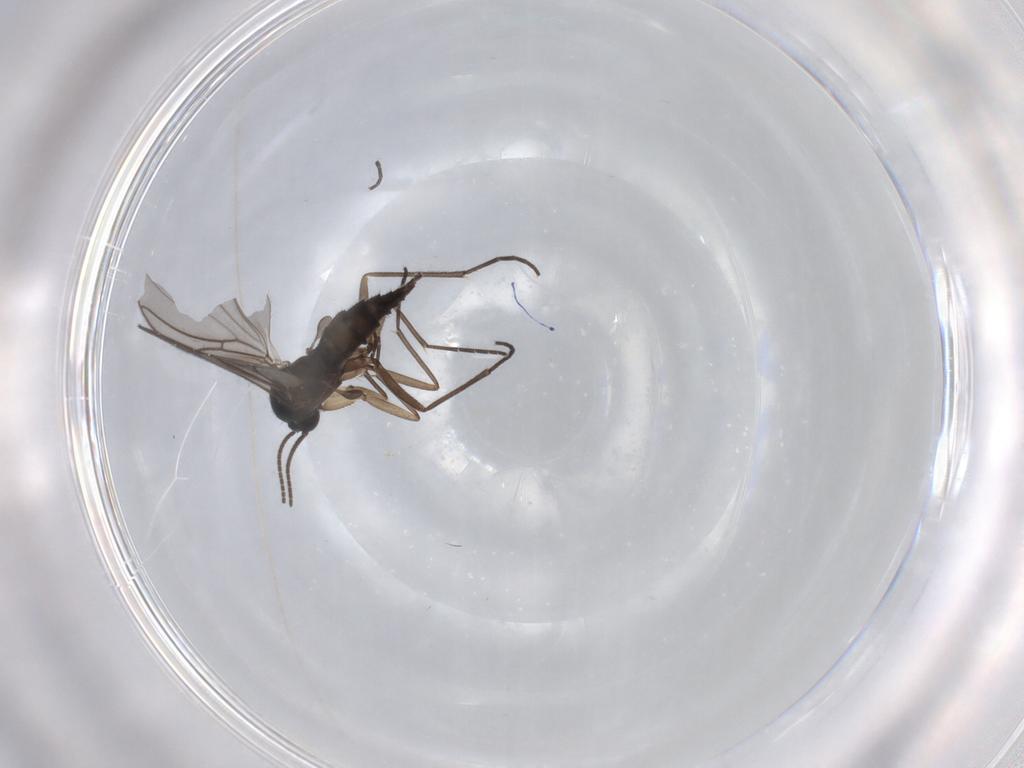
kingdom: Animalia
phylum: Arthropoda
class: Insecta
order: Diptera
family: Sciaridae
